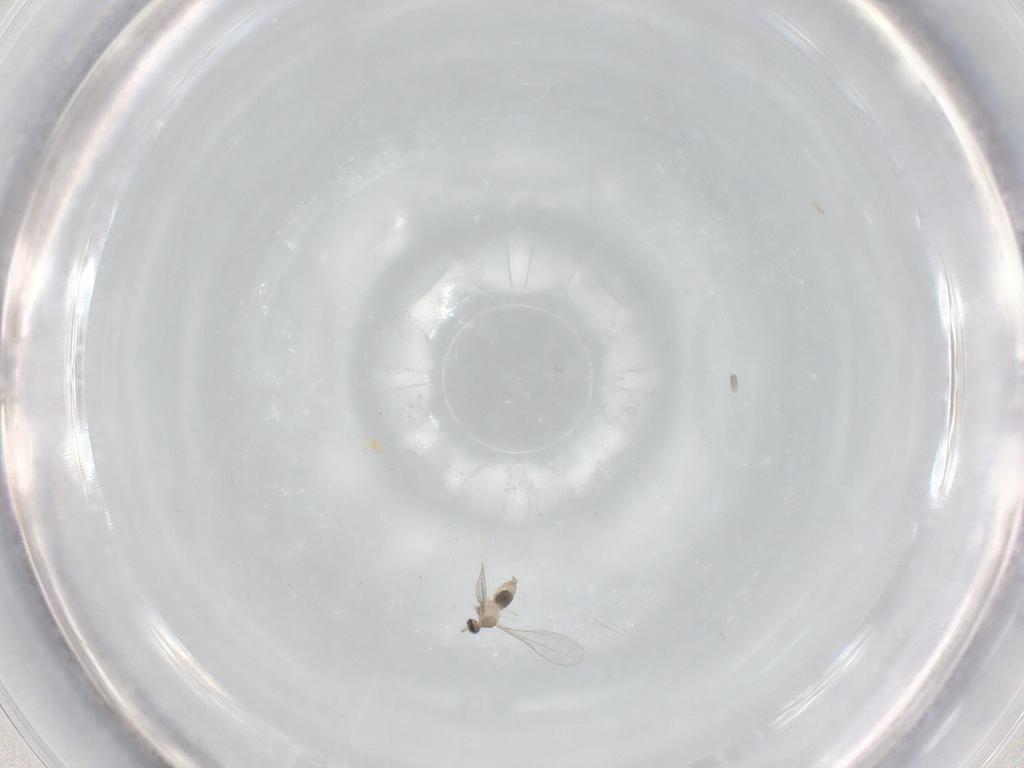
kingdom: Animalia
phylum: Arthropoda
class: Insecta
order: Diptera
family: Cecidomyiidae
